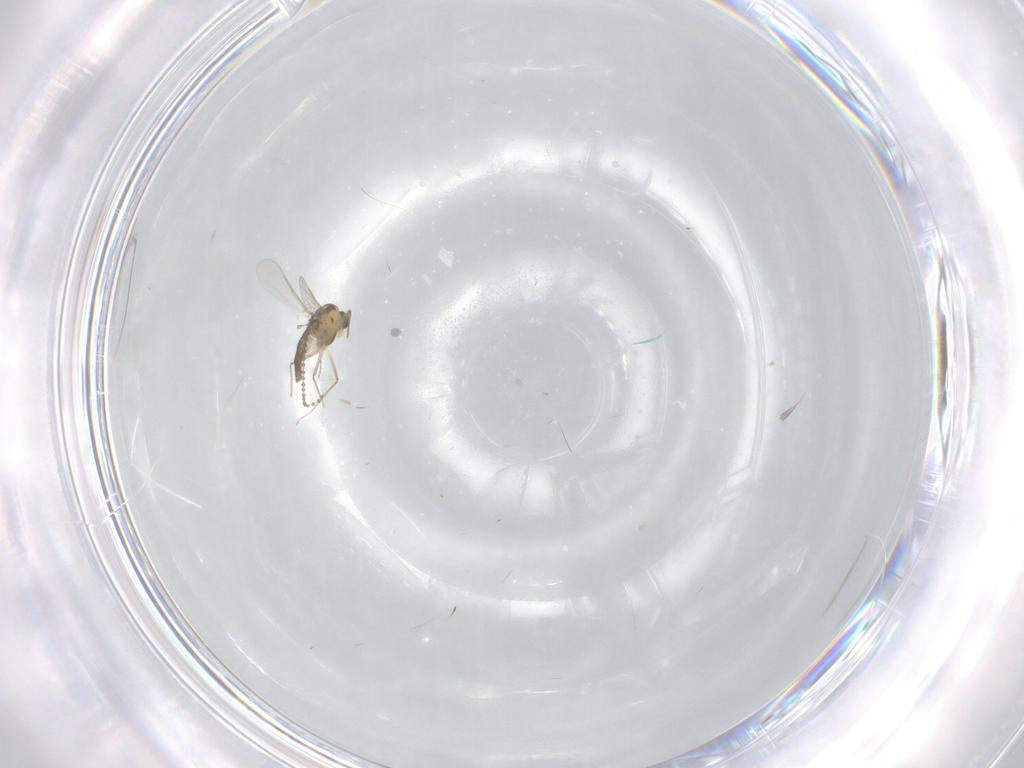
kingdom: Animalia
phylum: Arthropoda
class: Insecta
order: Diptera
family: Chironomidae
